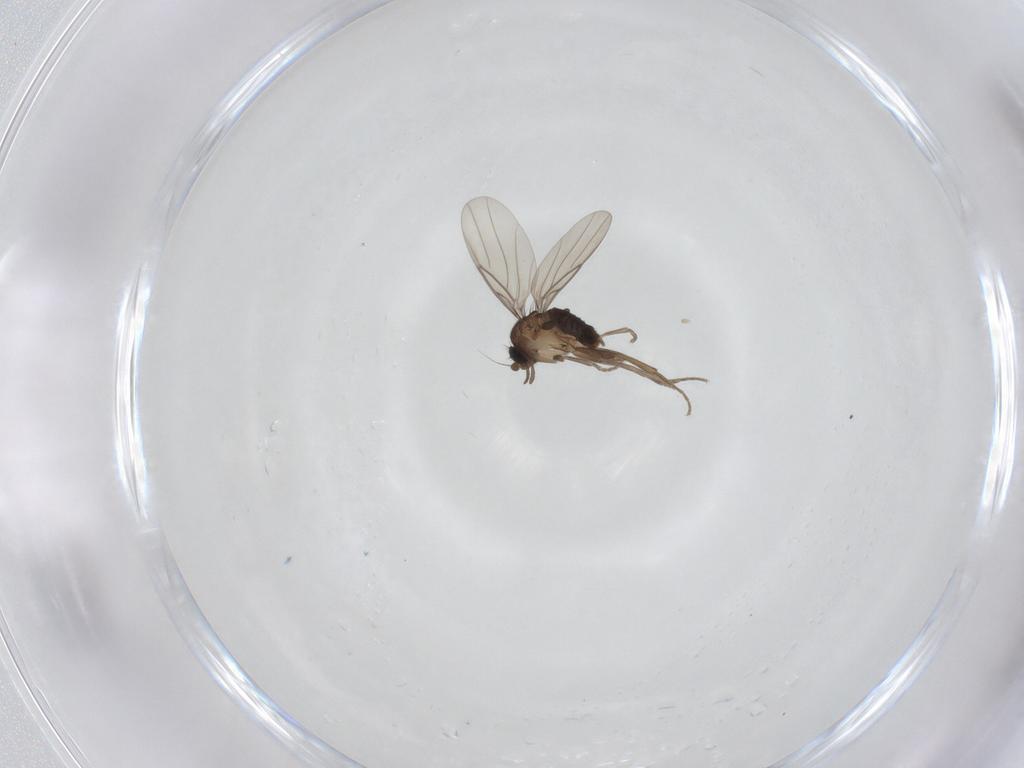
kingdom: Animalia
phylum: Arthropoda
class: Insecta
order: Diptera
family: Phoridae
